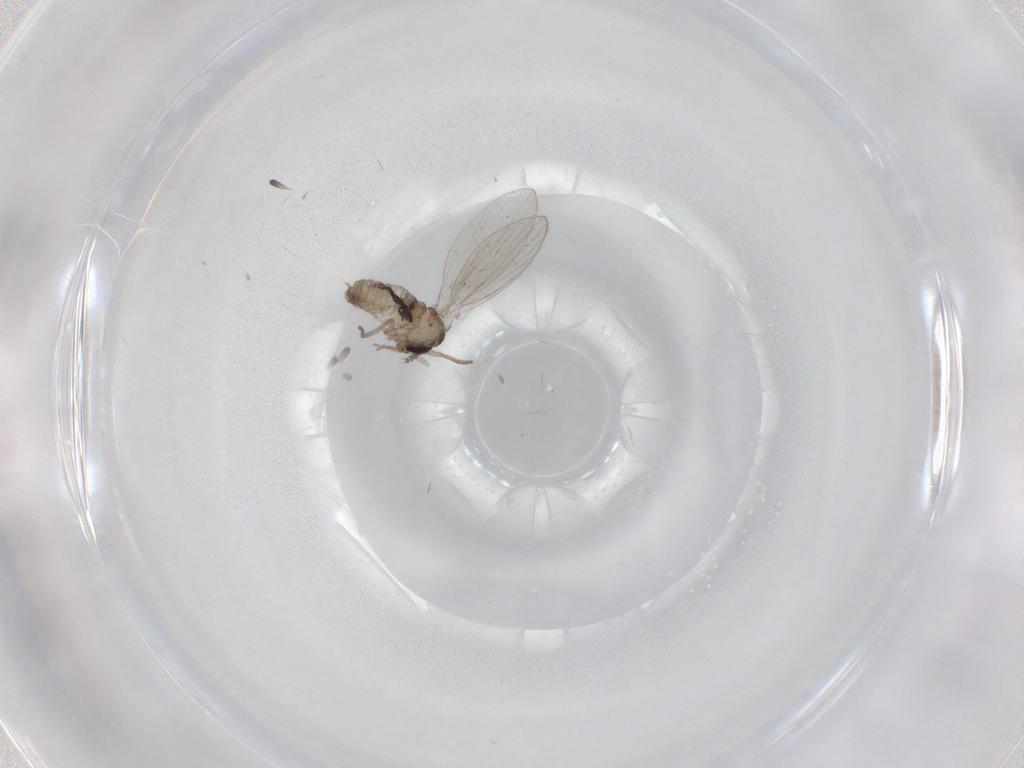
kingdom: Animalia
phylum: Arthropoda
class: Insecta
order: Diptera
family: Psychodidae
